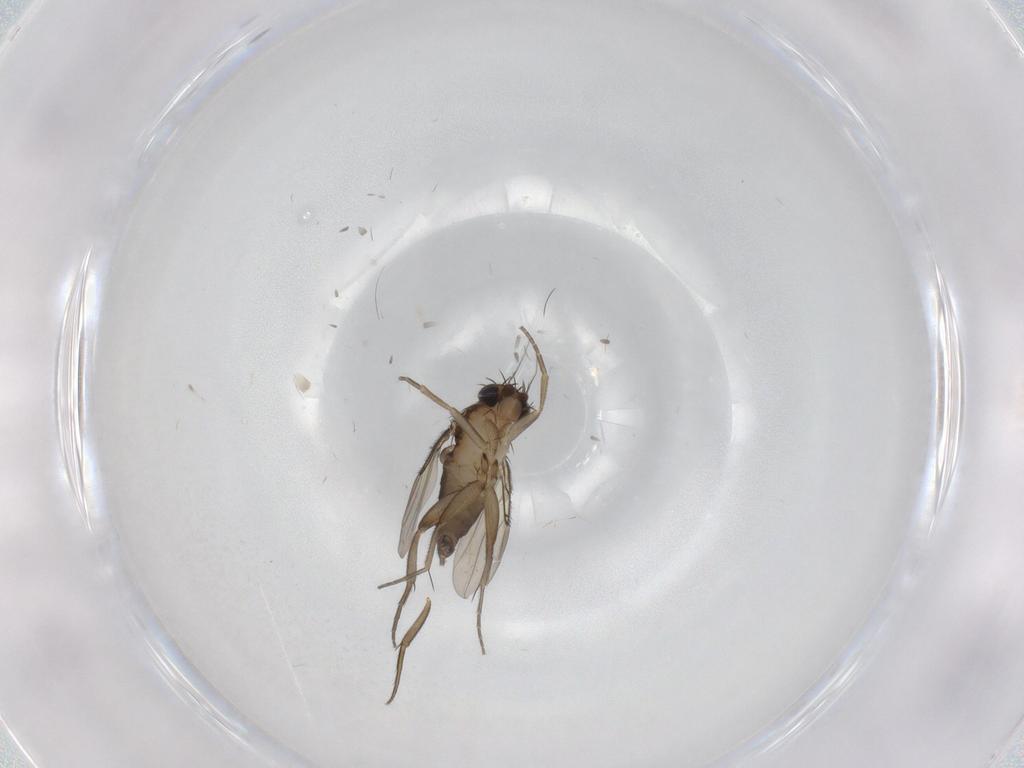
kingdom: Animalia
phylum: Arthropoda
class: Insecta
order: Diptera
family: Phoridae
